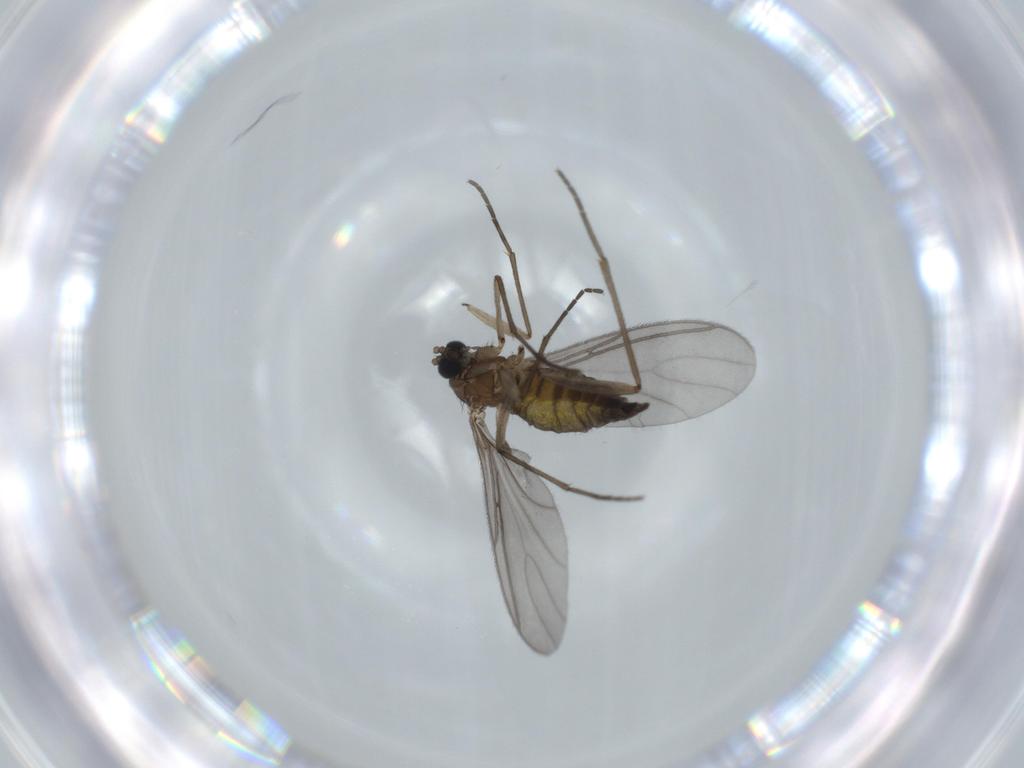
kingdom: Animalia
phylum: Arthropoda
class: Insecta
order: Diptera
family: Sciaridae
